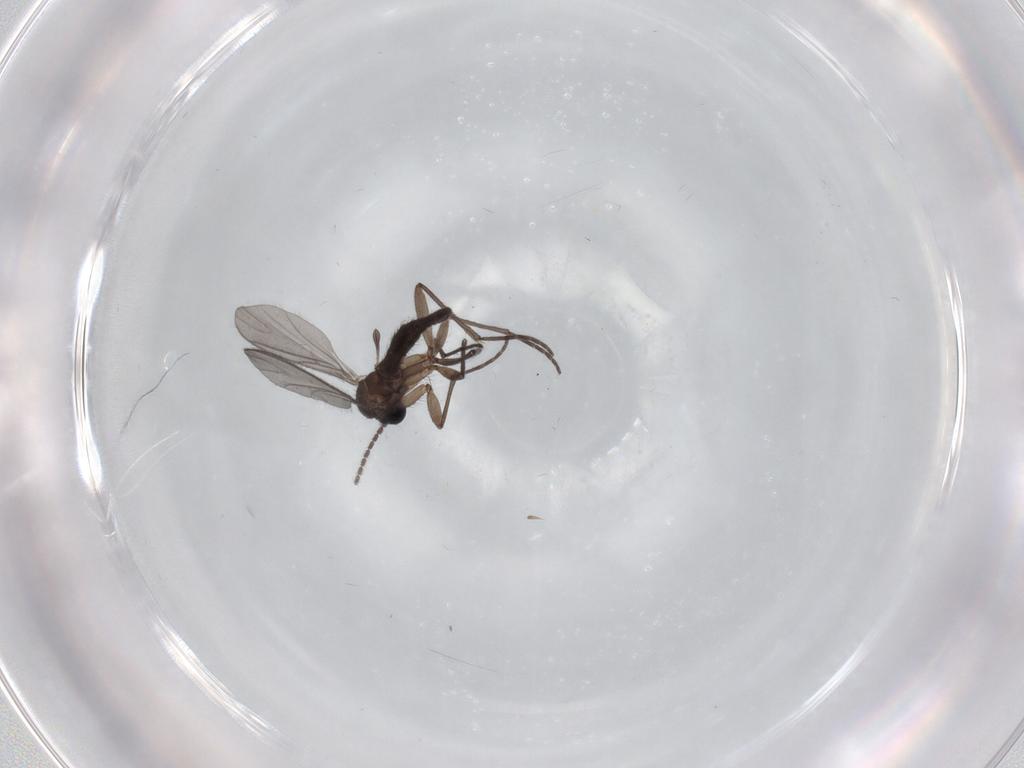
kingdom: Animalia
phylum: Arthropoda
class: Insecta
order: Diptera
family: Sciaridae
